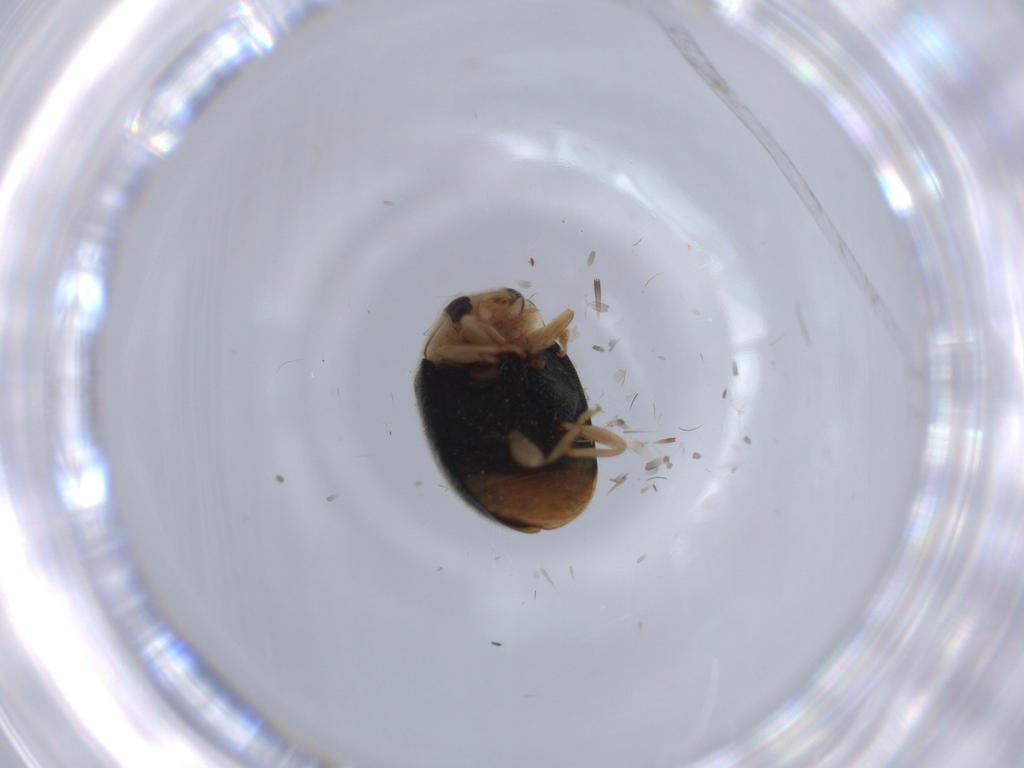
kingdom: Animalia
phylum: Arthropoda
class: Insecta
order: Coleoptera
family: Coccinellidae
